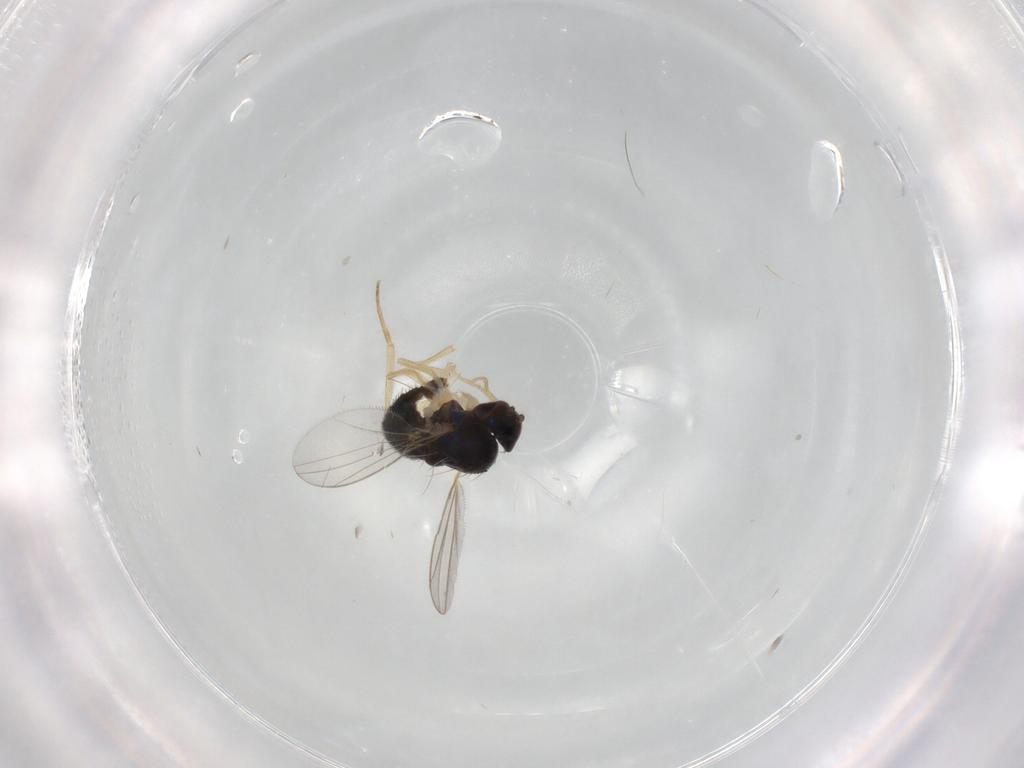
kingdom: Animalia
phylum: Arthropoda
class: Insecta
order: Diptera
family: Dolichopodidae
